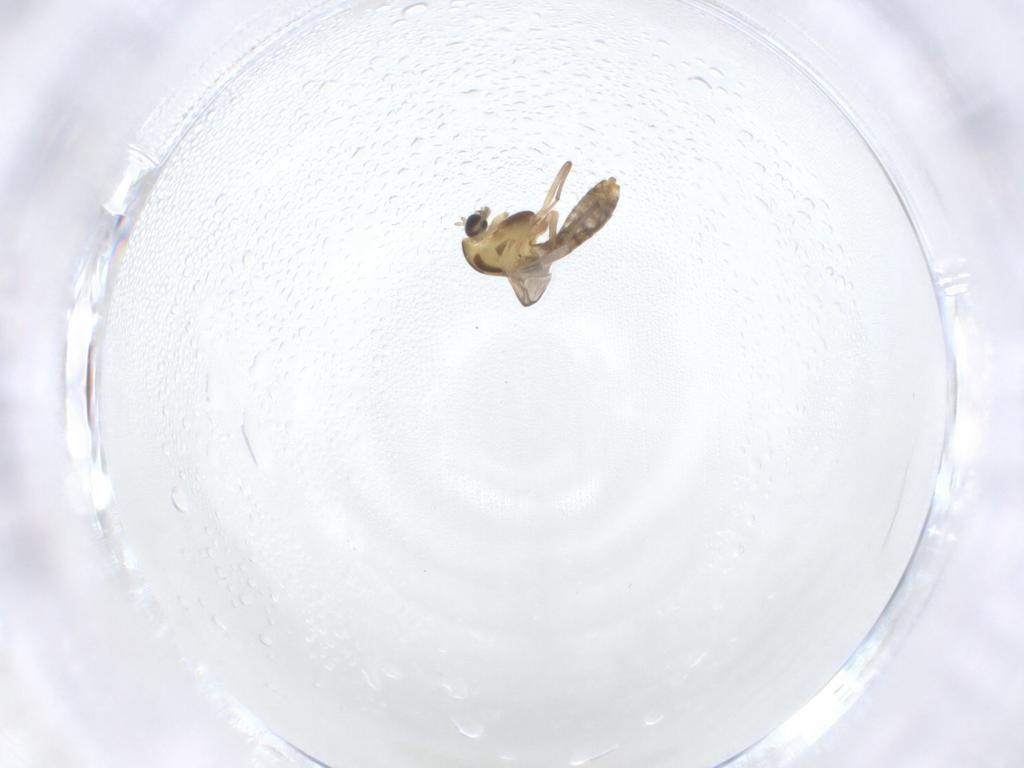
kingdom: Animalia
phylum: Arthropoda
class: Insecta
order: Diptera
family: Chironomidae
